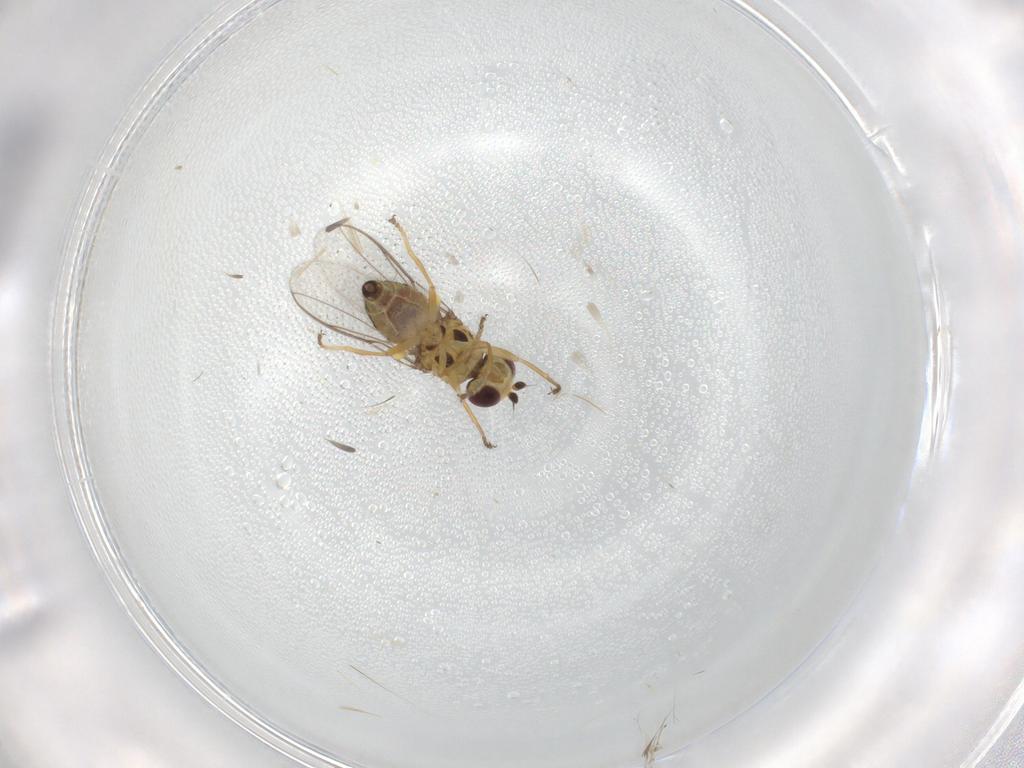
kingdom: Animalia
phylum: Arthropoda
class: Insecta
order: Diptera
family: Chloropidae
